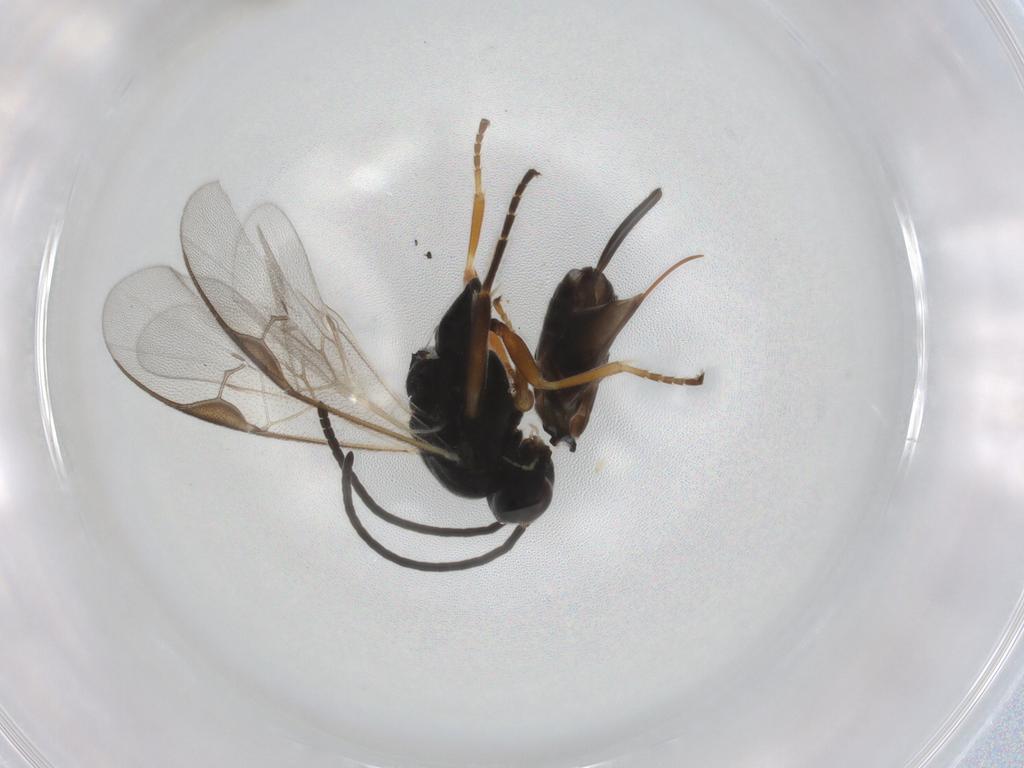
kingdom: Animalia
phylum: Arthropoda
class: Insecta
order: Hymenoptera
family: Braconidae
